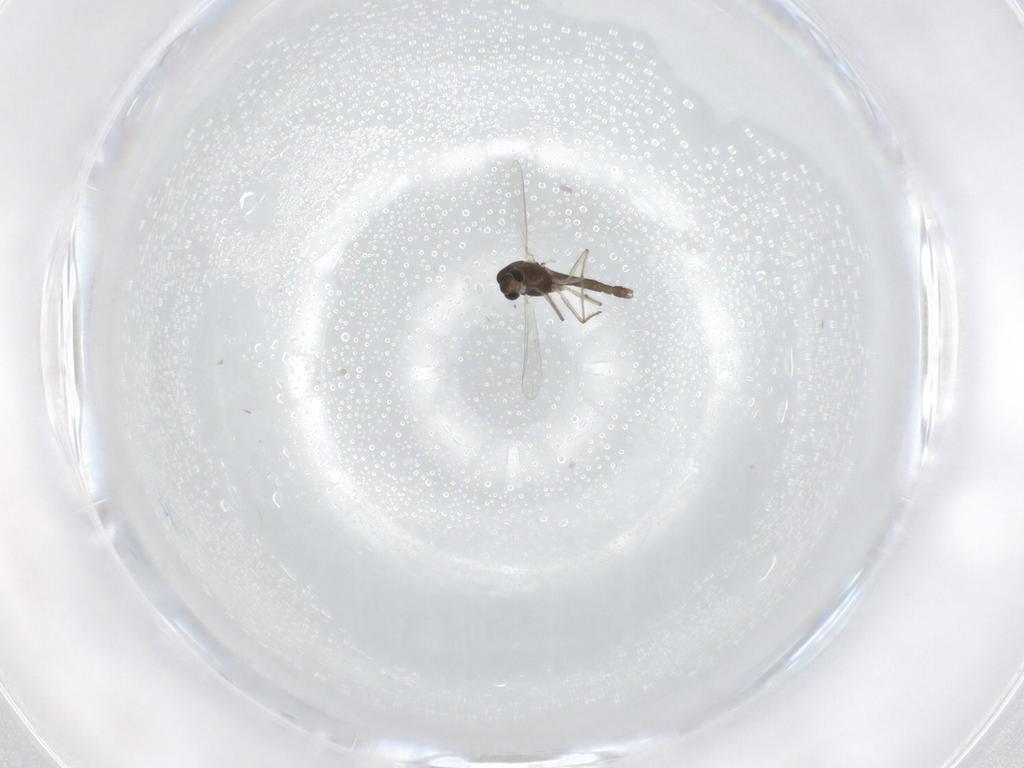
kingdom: Animalia
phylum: Arthropoda
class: Insecta
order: Diptera
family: Chironomidae
